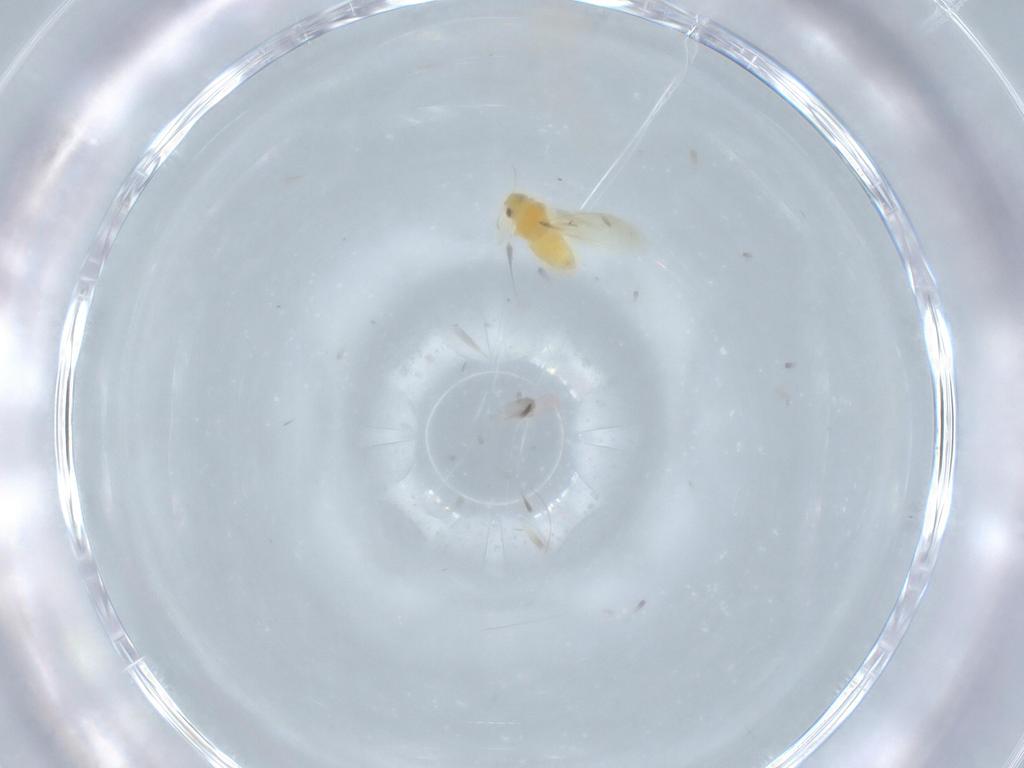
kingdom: Animalia
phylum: Arthropoda
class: Insecta
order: Hemiptera
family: Aleyrodidae
